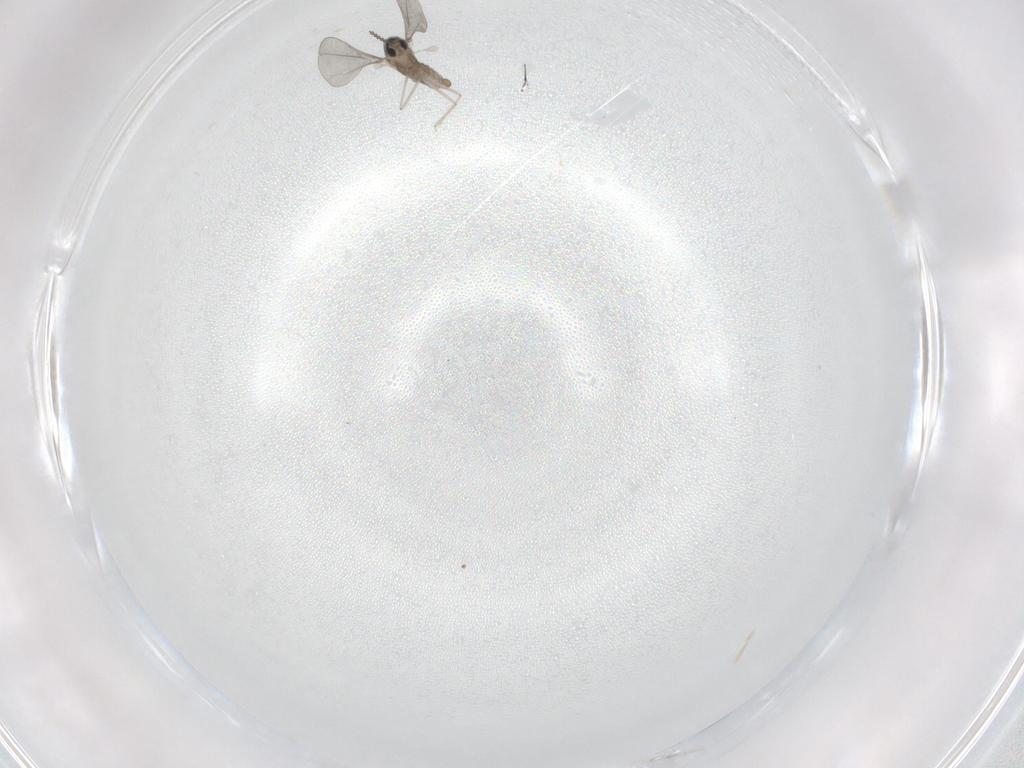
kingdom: Animalia
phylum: Arthropoda
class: Insecta
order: Diptera
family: Cecidomyiidae
